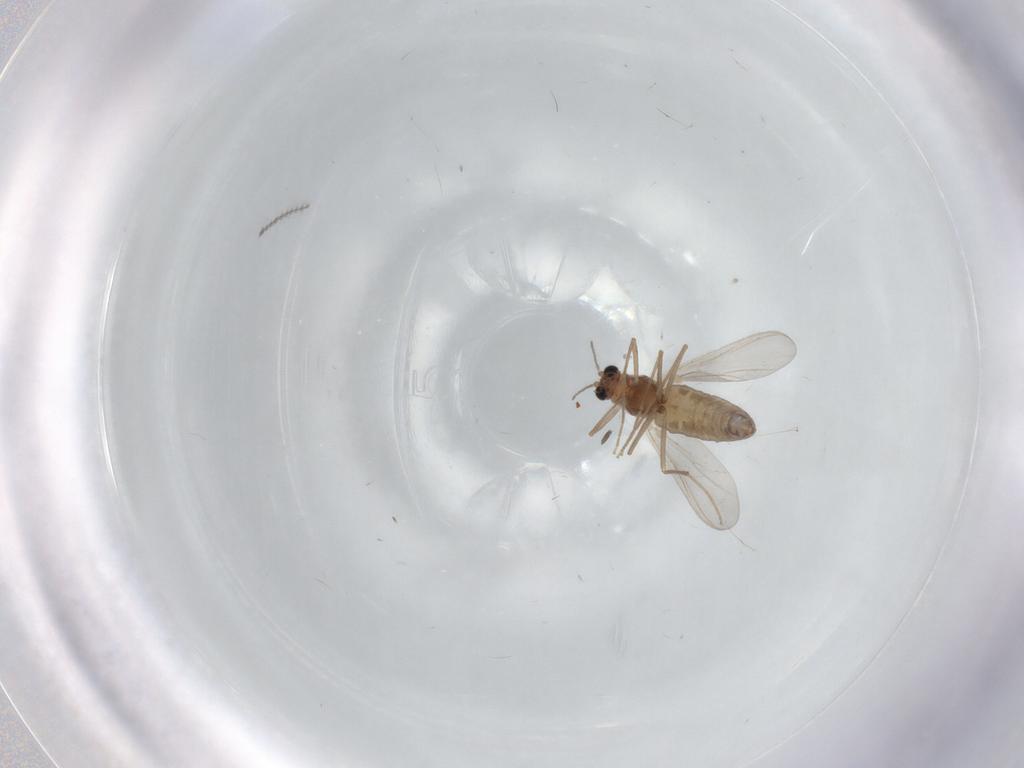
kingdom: Animalia
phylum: Arthropoda
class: Insecta
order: Diptera
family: Chironomidae
